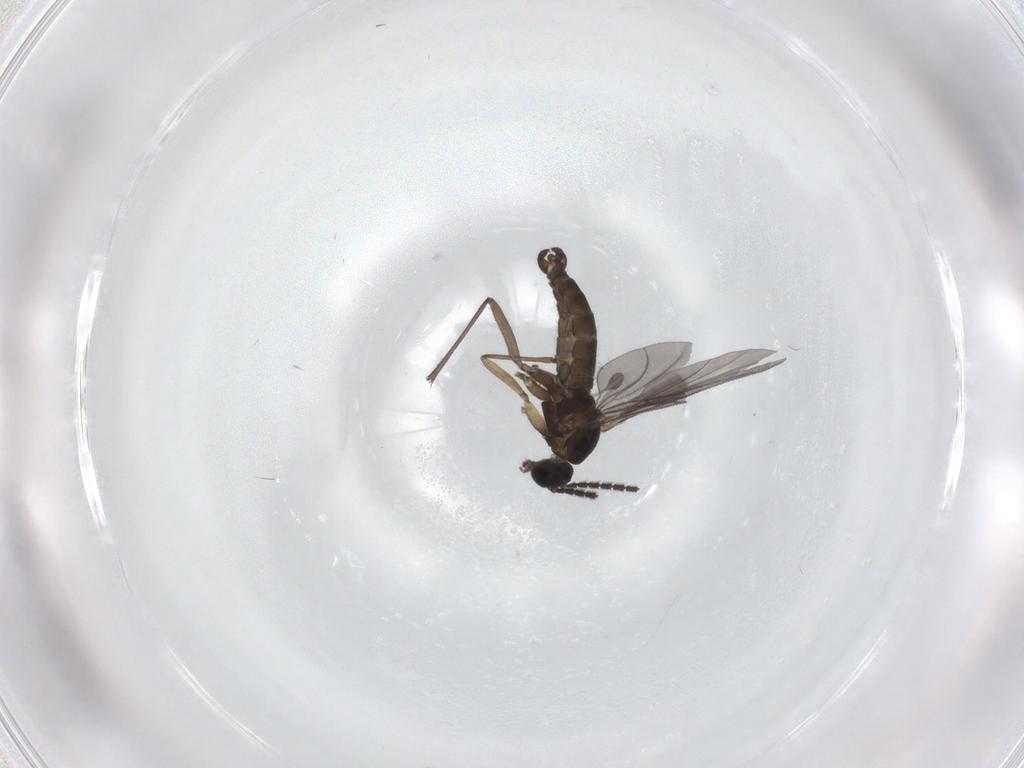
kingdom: Animalia
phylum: Arthropoda
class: Insecta
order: Diptera
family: Sciaridae
